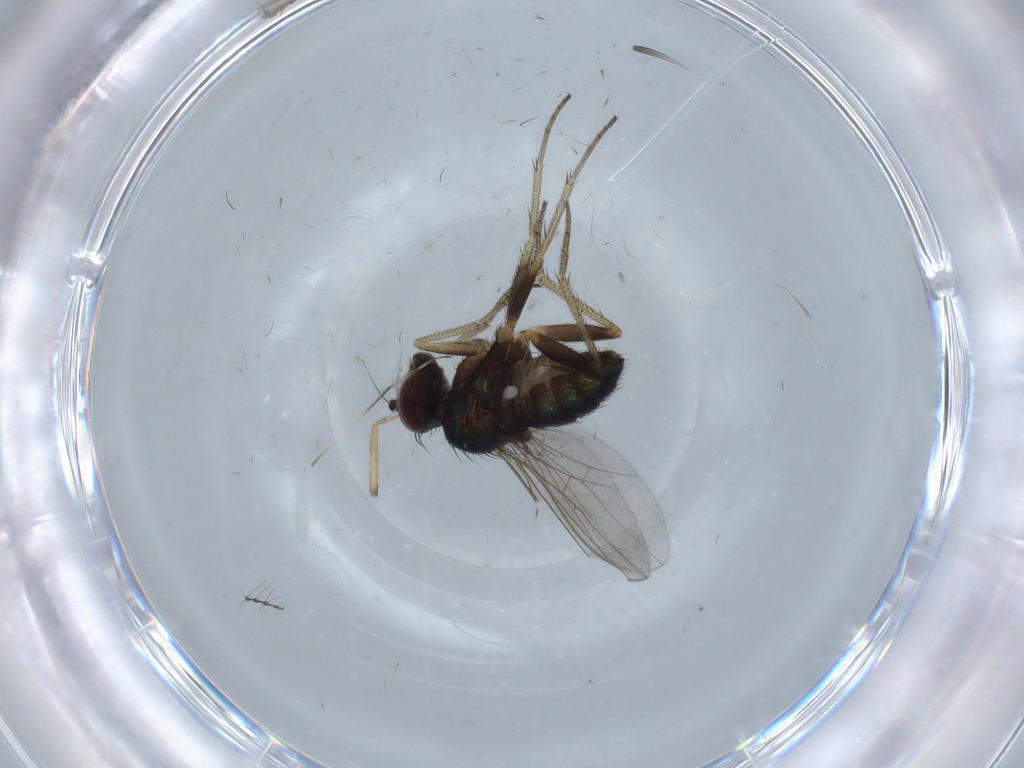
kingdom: Animalia
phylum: Arthropoda
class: Insecta
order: Diptera
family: Ceratopogonidae
